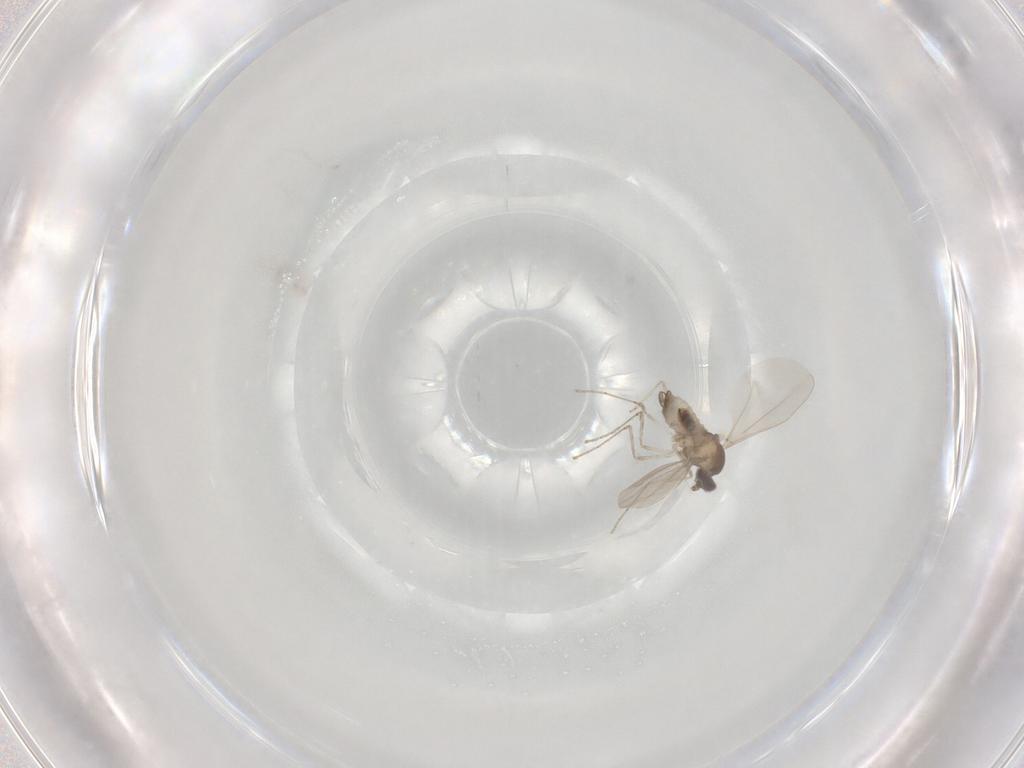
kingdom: Animalia
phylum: Arthropoda
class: Insecta
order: Diptera
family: Cecidomyiidae
